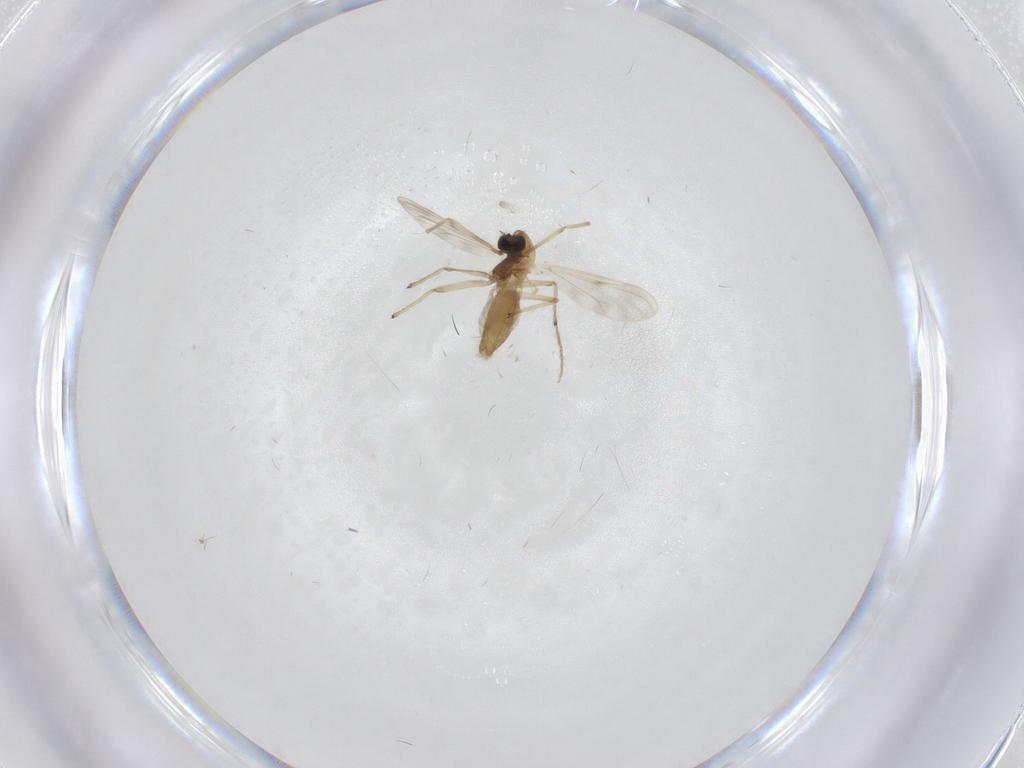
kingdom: Animalia
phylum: Arthropoda
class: Insecta
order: Diptera
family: Chironomidae
